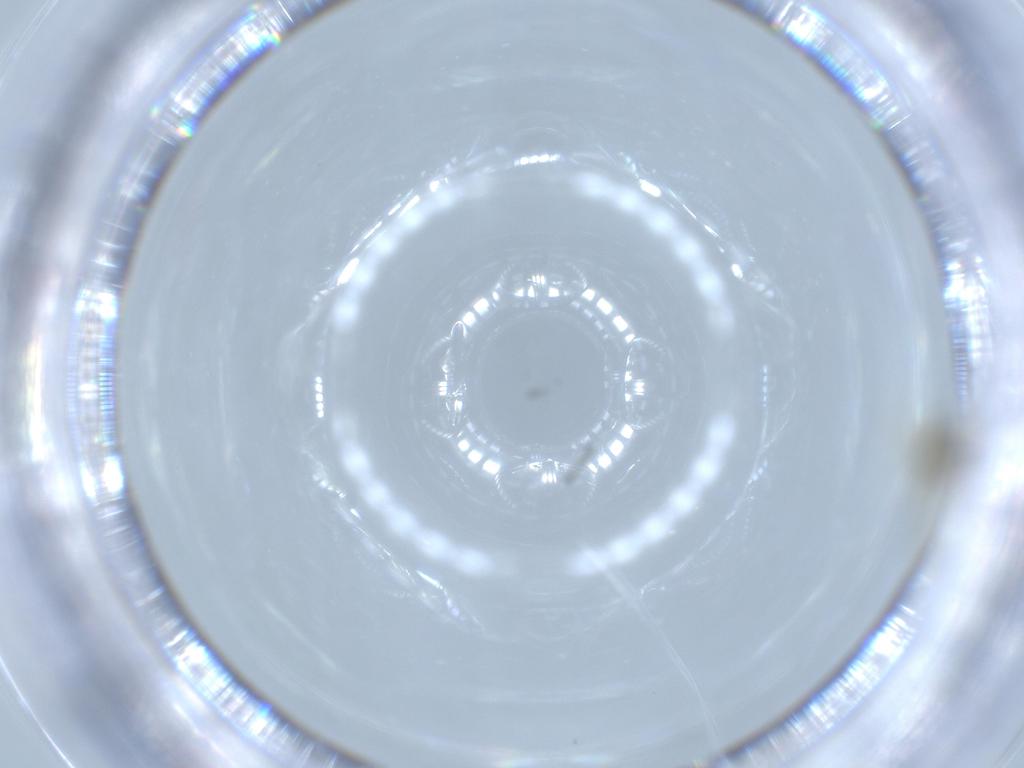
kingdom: Animalia
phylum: Arthropoda
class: Insecta
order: Diptera
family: Chironomidae
